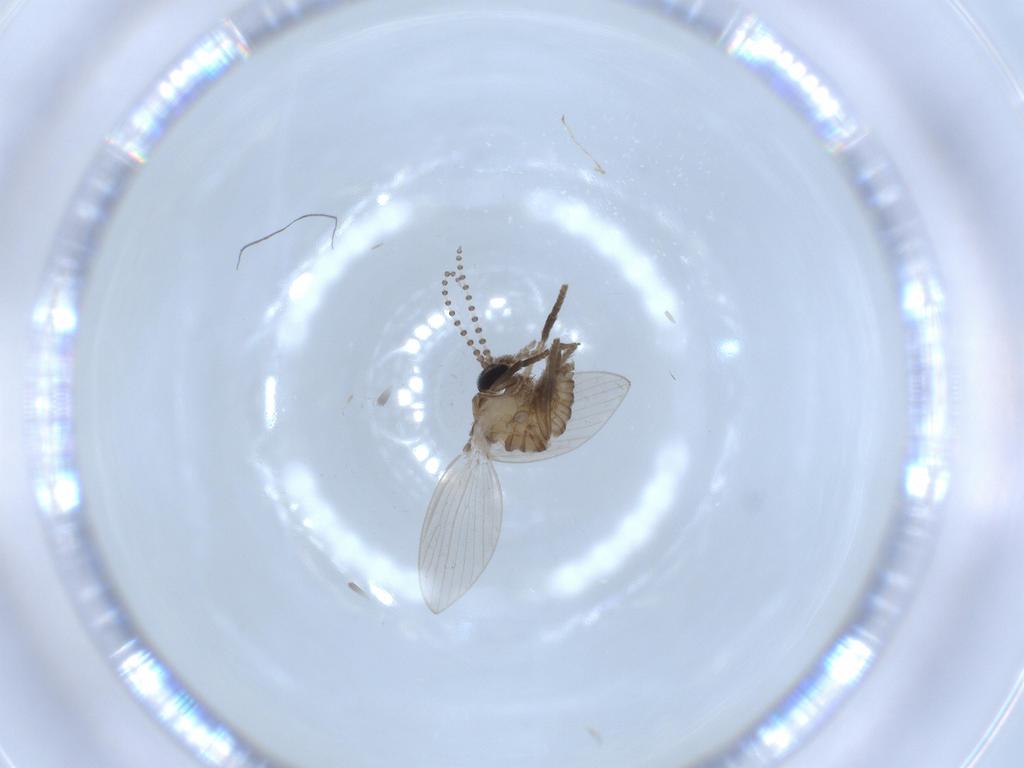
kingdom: Animalia
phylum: Arthropoda
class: Insecta
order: Diptera
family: Psychodidae
